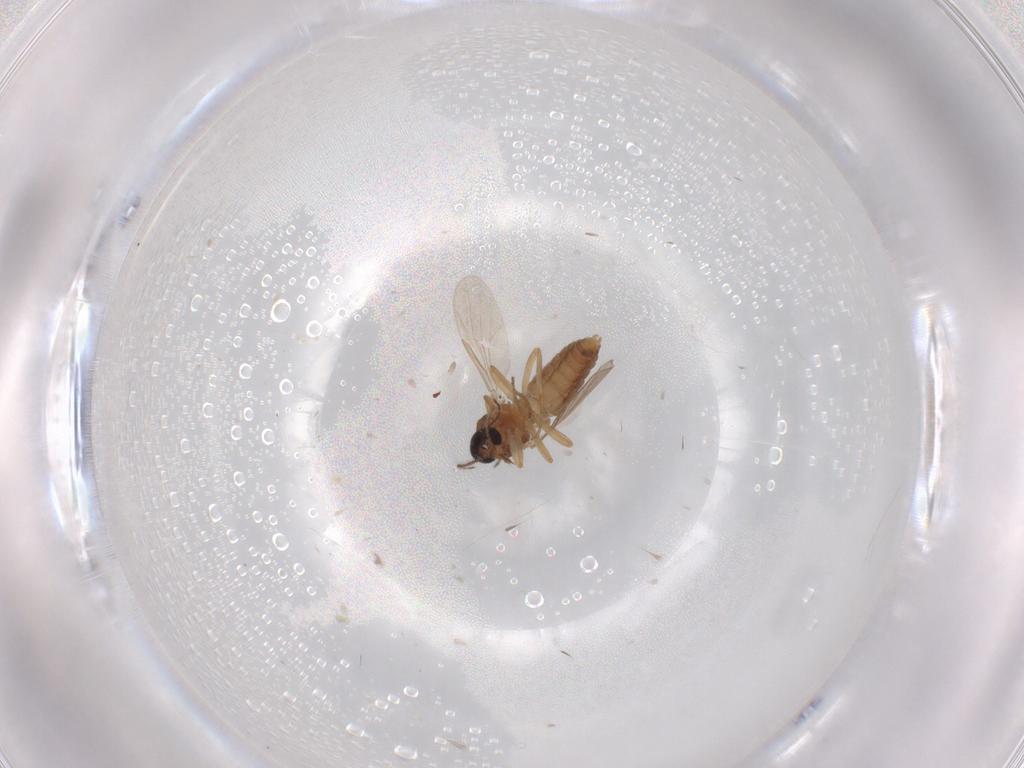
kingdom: Animalia
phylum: Arthropoda
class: Insecta
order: Diptera
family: Ceratopogonidae
